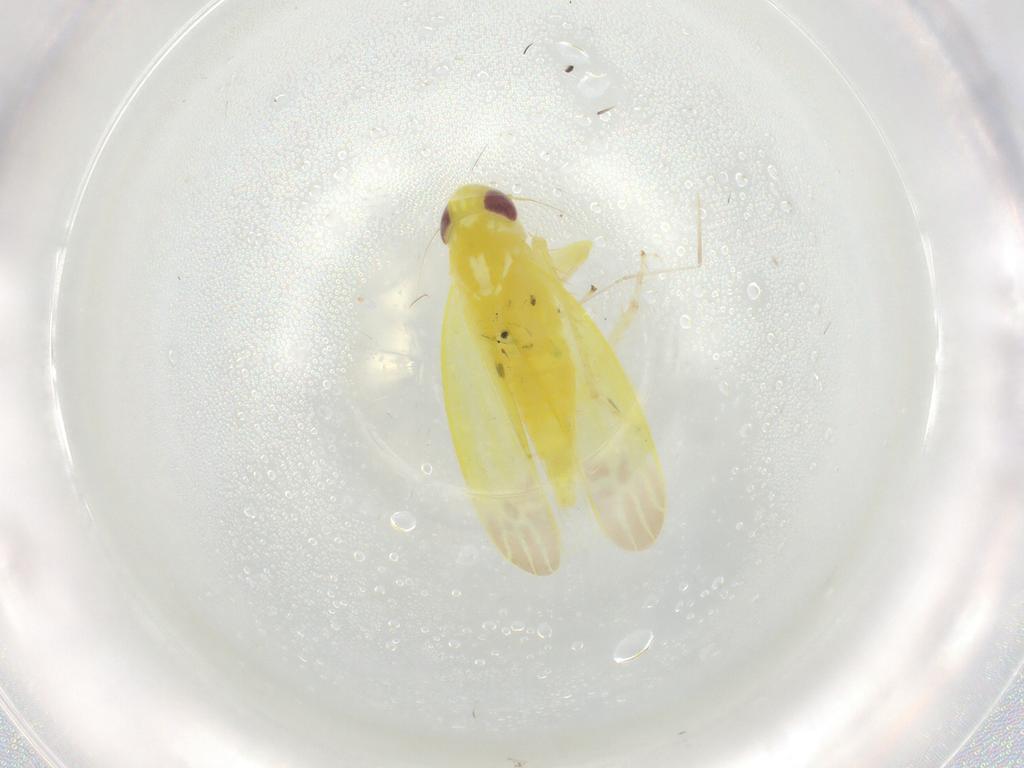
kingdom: Animalia
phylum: Arthropoda
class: Insecta
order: Hemiptera
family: Cicadellidae
